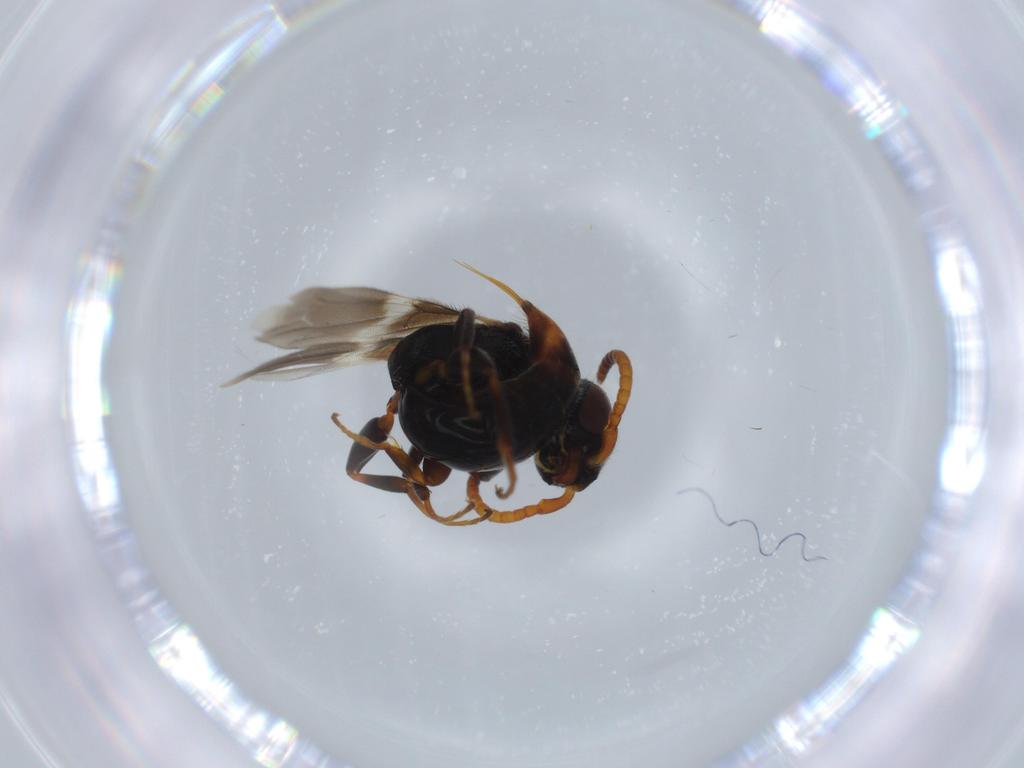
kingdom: Animalia
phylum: Arthropoda
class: Insecta
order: Hymenoptera
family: Bethylidae
